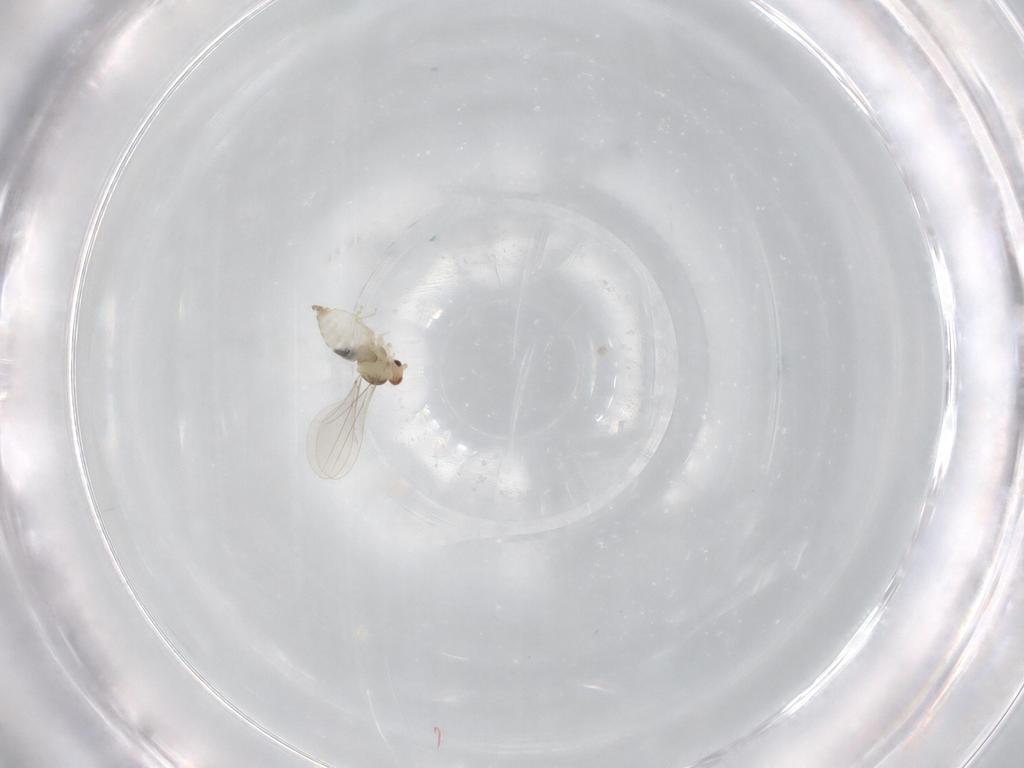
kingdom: Animalia
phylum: Arthropoda
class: Insecta
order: Diptera
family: Cecidomyiidae
